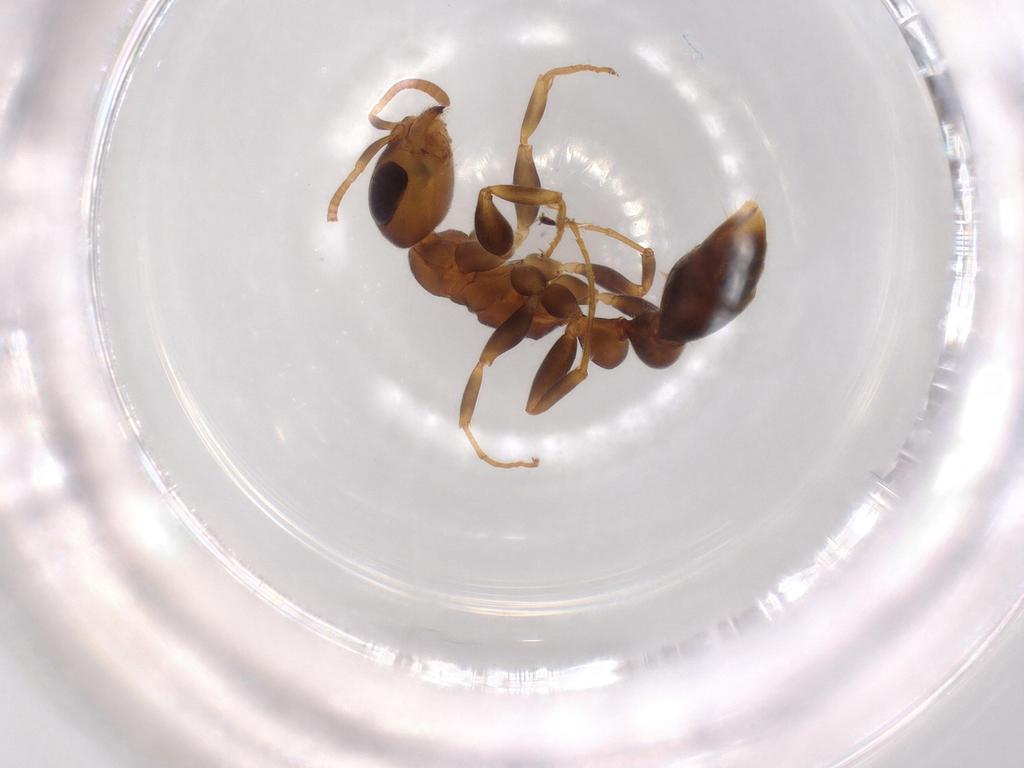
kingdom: Animalia
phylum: Arthropoda
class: Insecta
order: Hymenoptera
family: Formicidae
